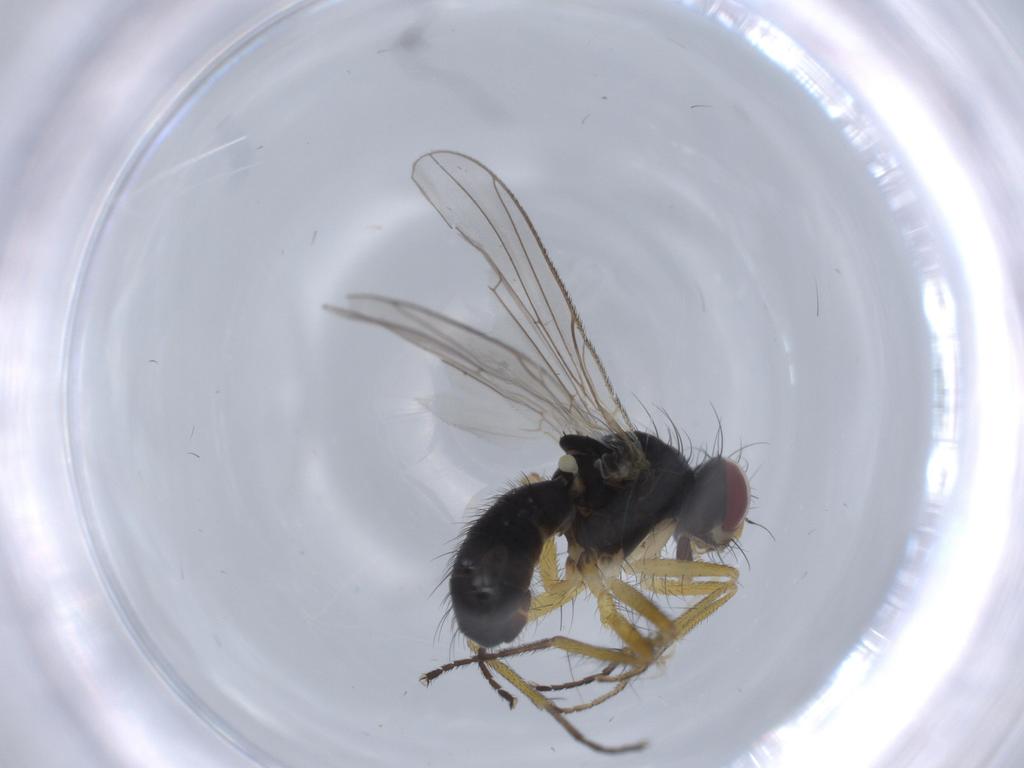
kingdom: Animalia
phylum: Arthropoda
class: Insecta
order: Diptera
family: Muscidae
